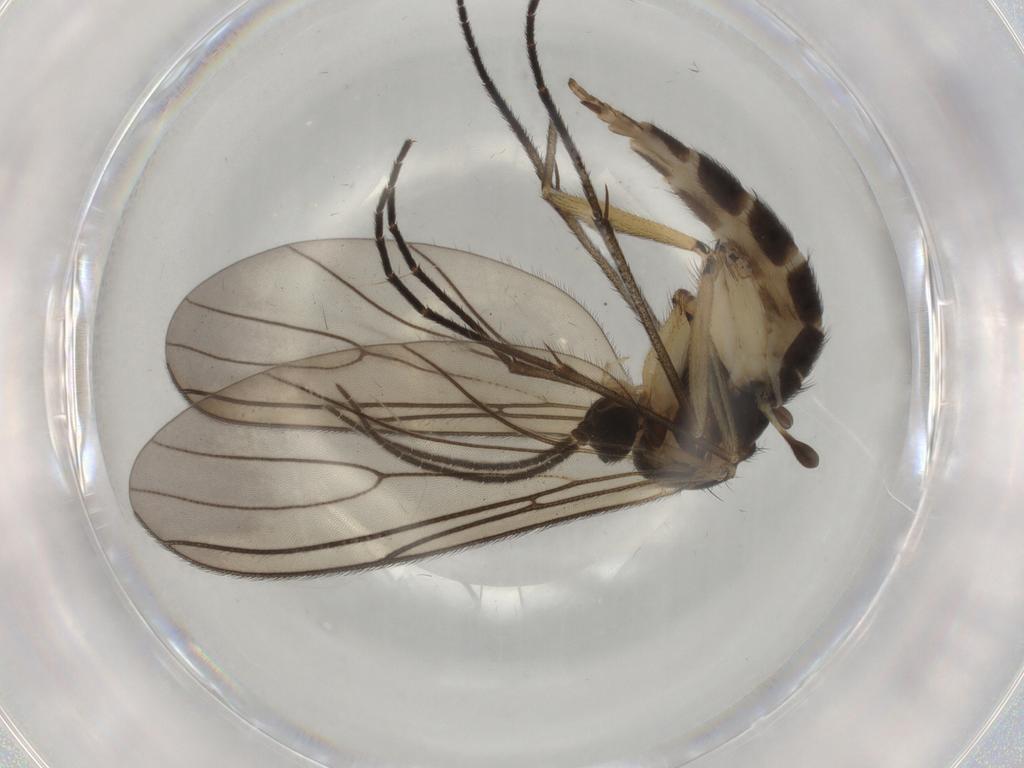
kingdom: Animalia
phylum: Arthropoda
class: Insecta
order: Diptera
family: Sciaridae
